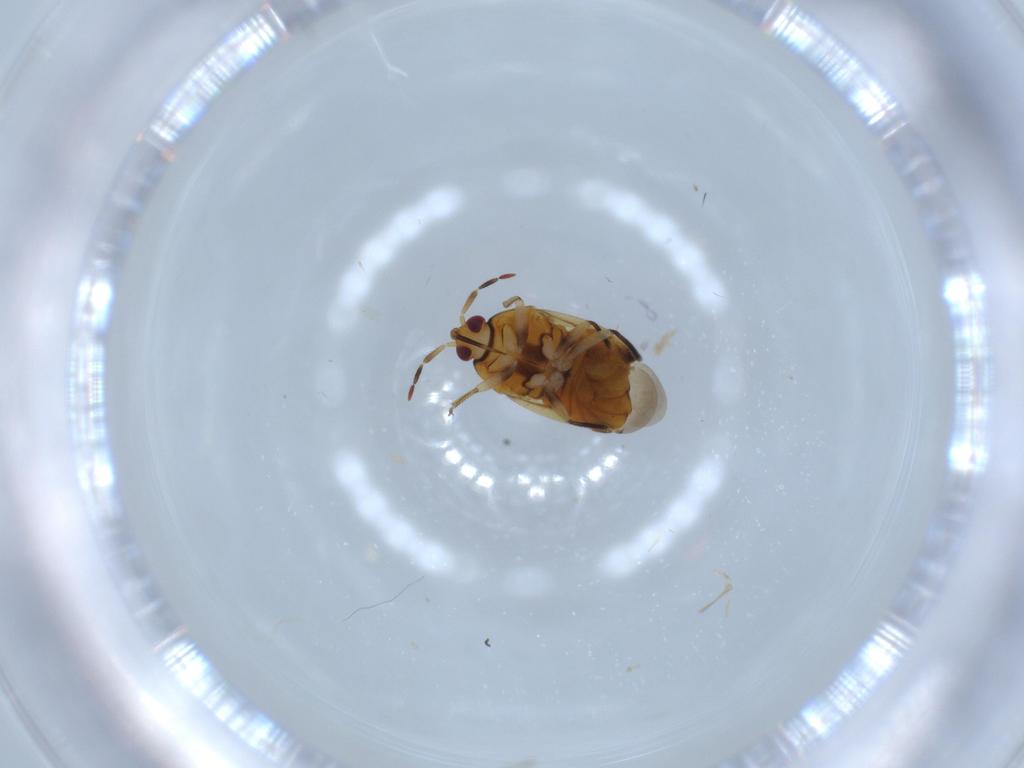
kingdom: Animalia
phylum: Arthropoda
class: Insecta
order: Hemiptera
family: Anthocoridae
